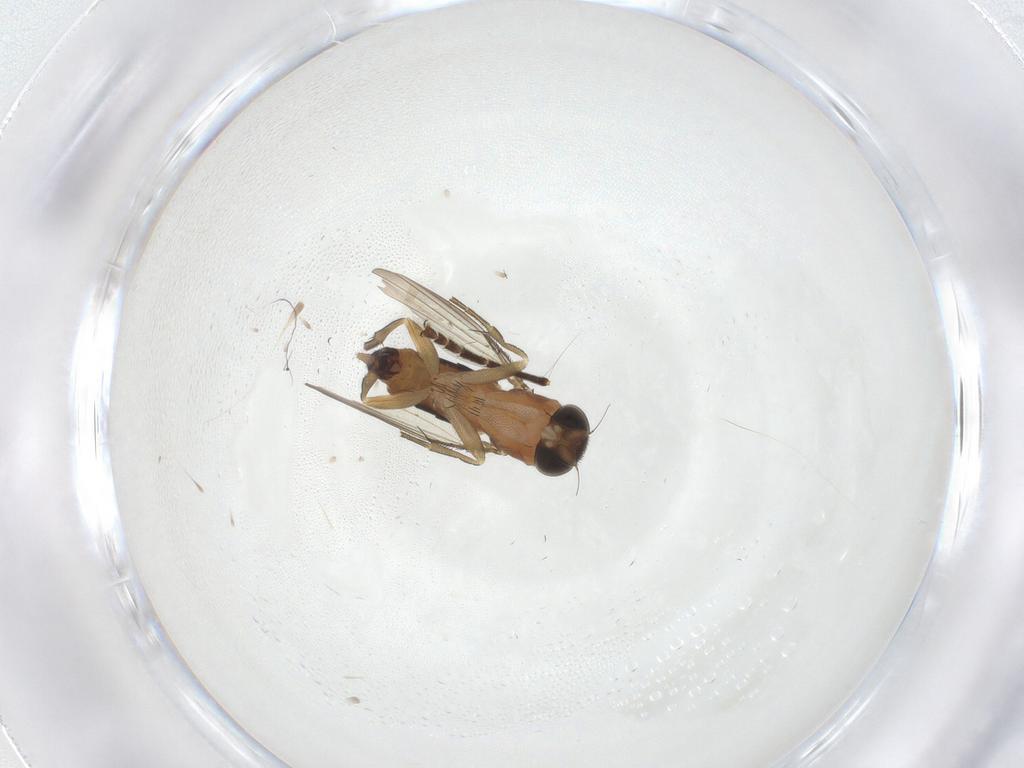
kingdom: Animalia
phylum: Arthropoda
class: Insecta
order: Diptera
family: Phoridae
